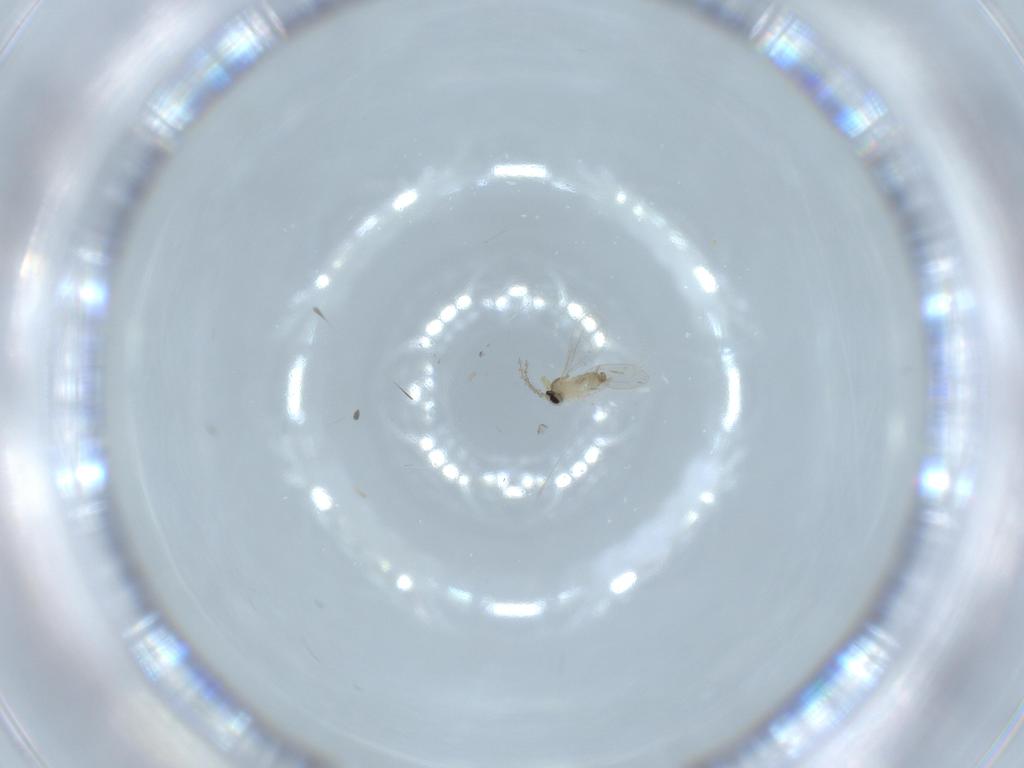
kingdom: Animalia
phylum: Arthropoda
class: Insecta
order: Diptera
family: Cecidomyiidae
